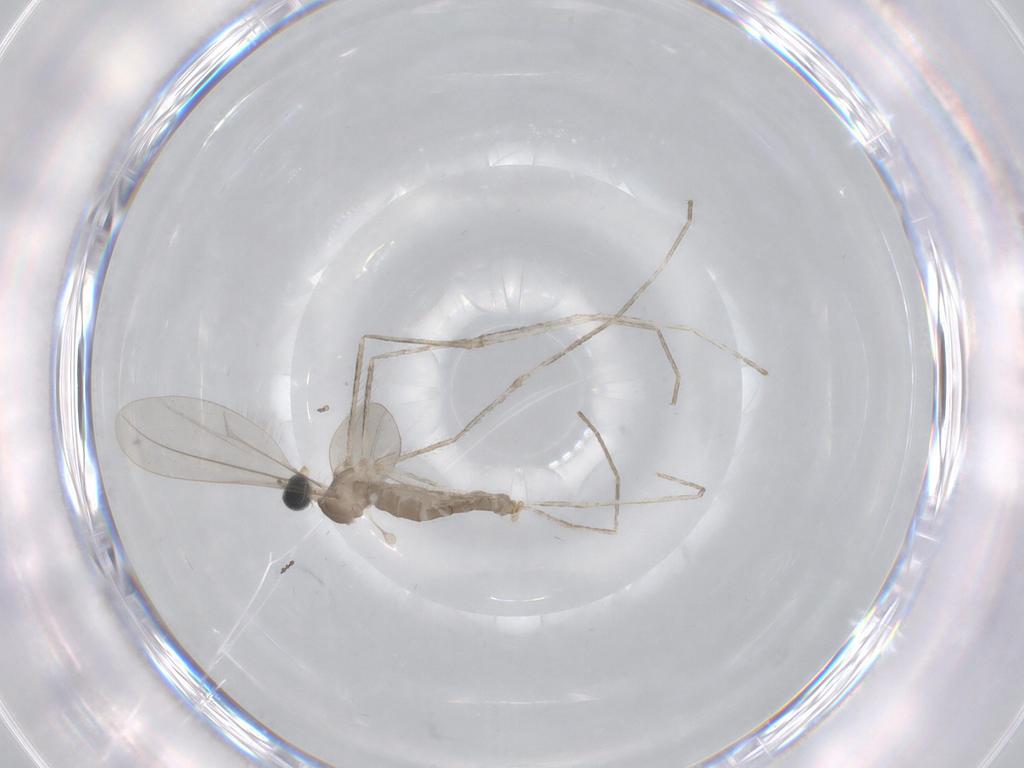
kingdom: Animalia
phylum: Arthropoda
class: Insecta
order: Diptera
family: Cecidomyiidae
